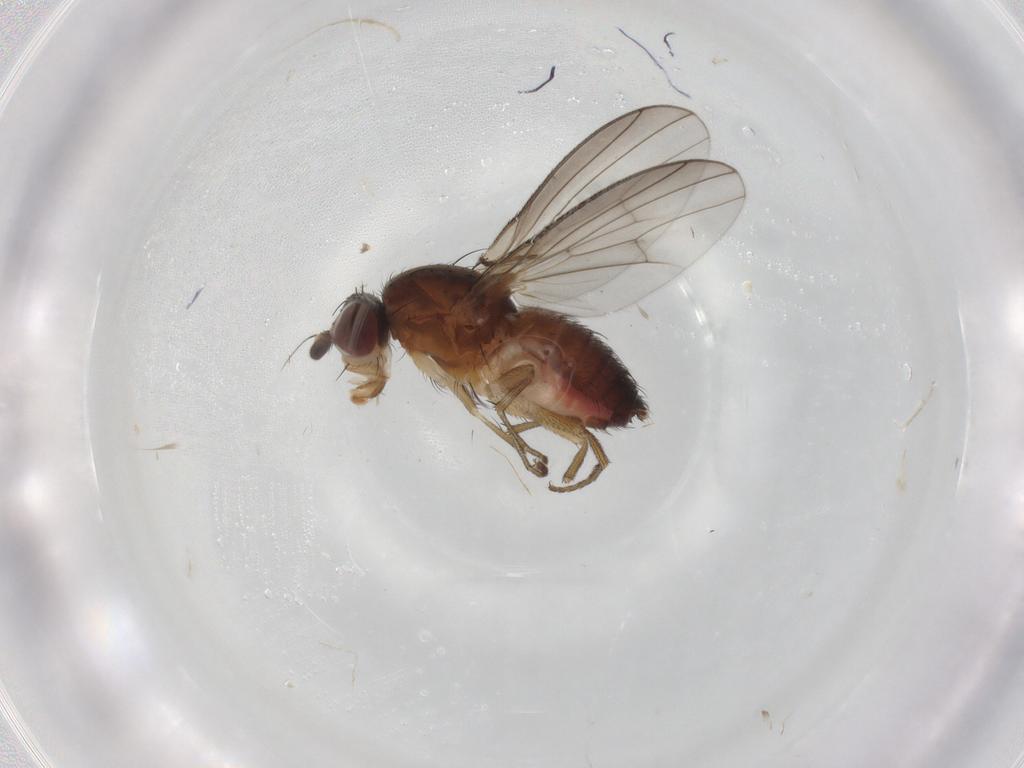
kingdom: Animalia
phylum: Arthropoda
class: Insecta
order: Diptera
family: Heleomyzidae
